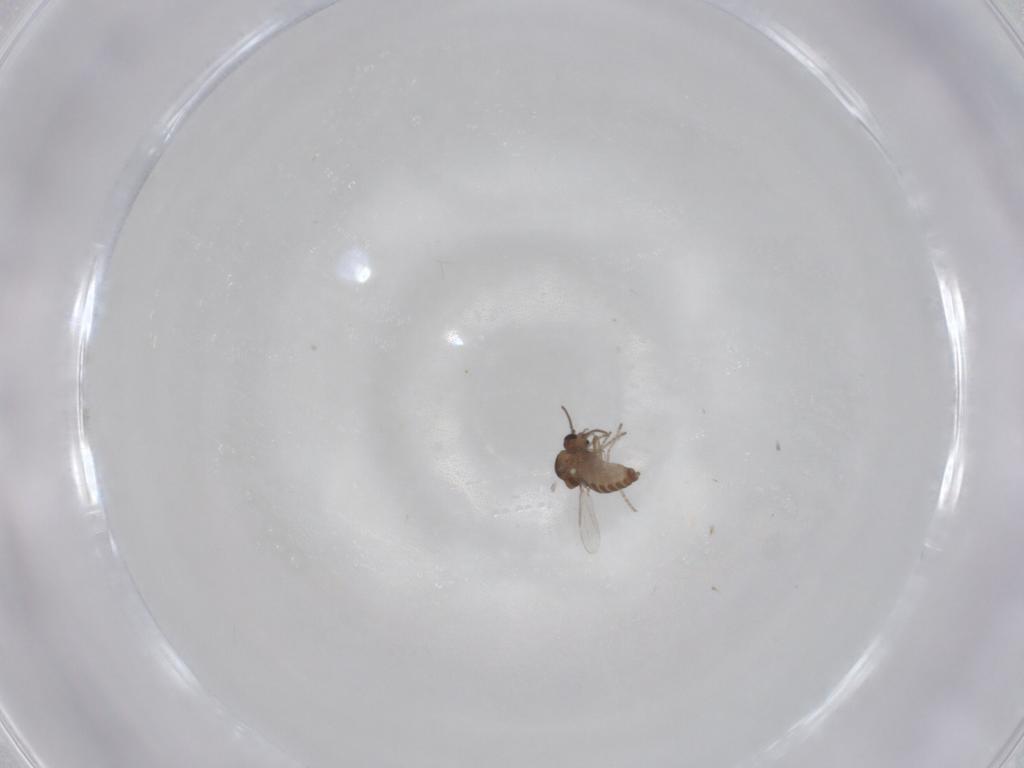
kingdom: Animalia
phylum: Arthropoda
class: Insecta
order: Diptera
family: Ceratopogonidae
